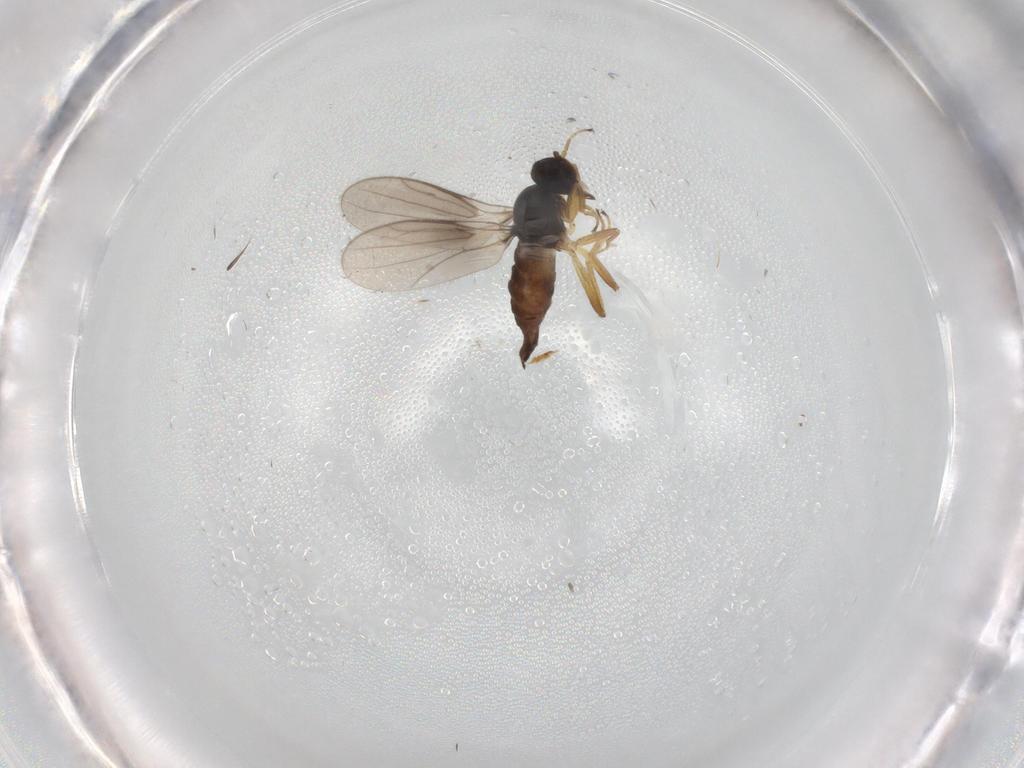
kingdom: Animalia
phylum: Arthropoda
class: Insecta
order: Diptera
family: Hybotidae
